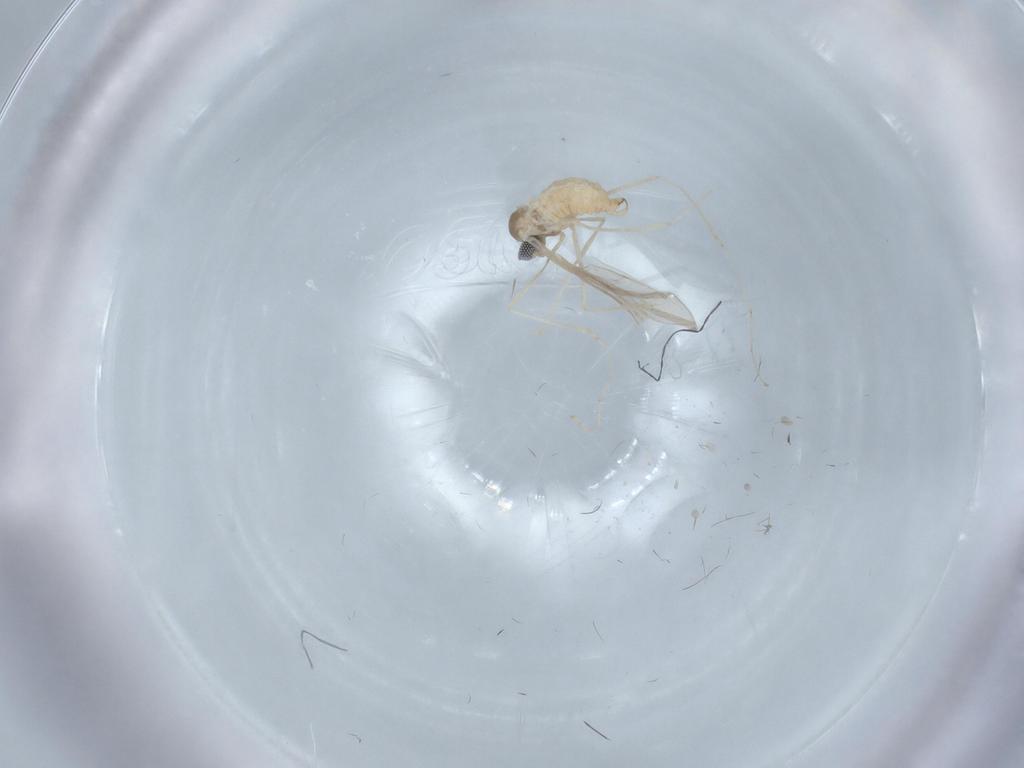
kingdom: Animalia
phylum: Arthropoda
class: Insecta
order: Diptera
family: Cecidomyiidae
